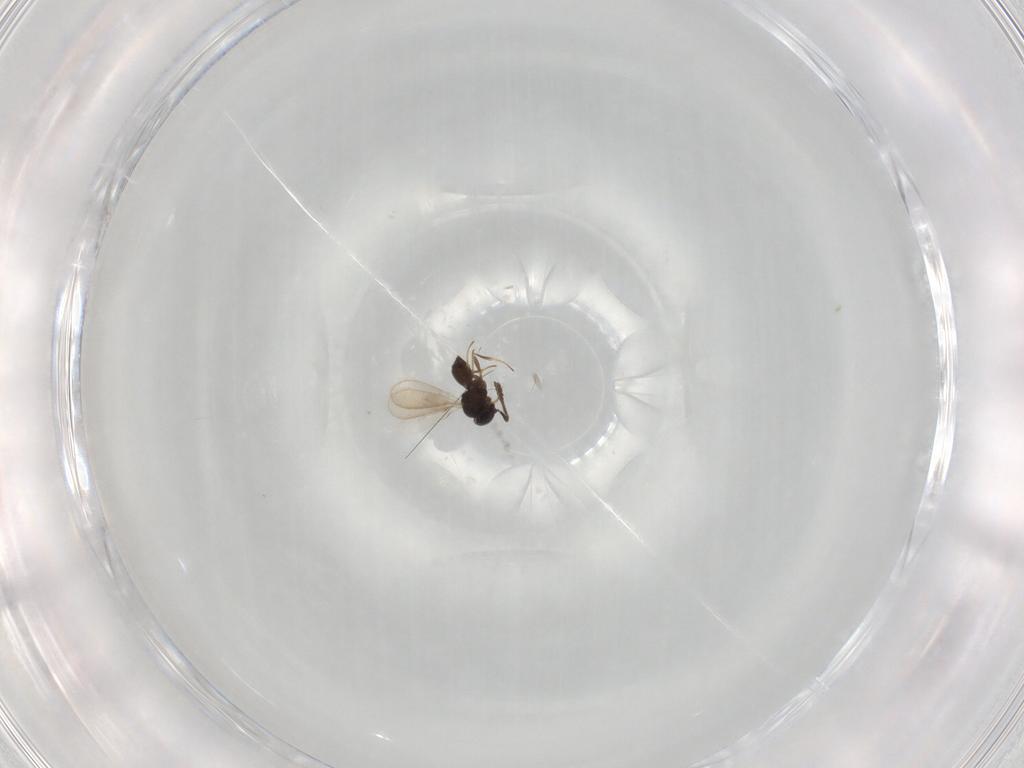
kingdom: Animalia
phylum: Arthropoda
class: Insecta
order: Hymenoptera
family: Scelionidae
